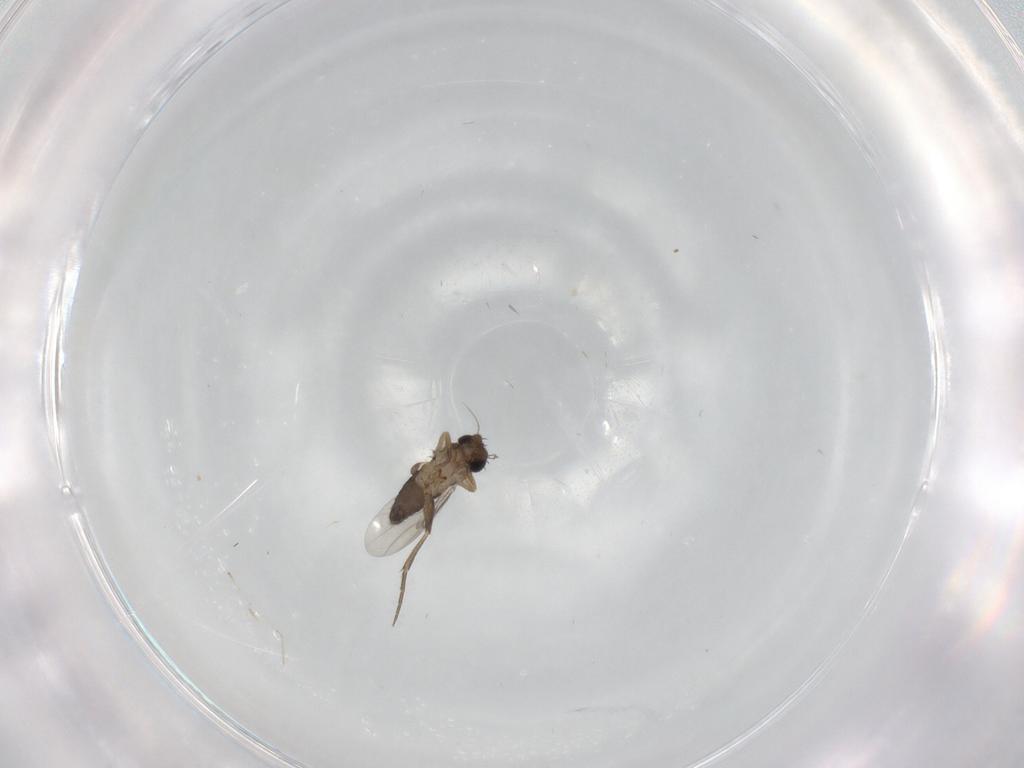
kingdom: Animalia
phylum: Arthropoda
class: Insecta
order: Diptera
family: Phoridae
